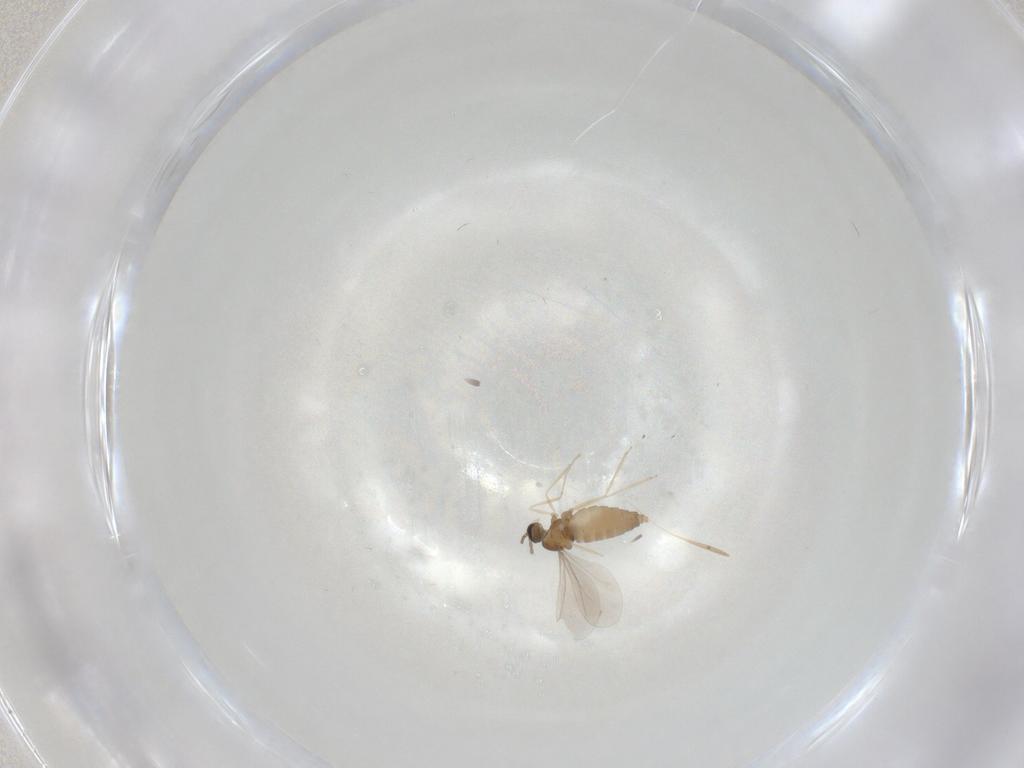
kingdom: Animalia
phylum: Arthropoda
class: Insecta
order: Diptera
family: Cecidomyiidae
